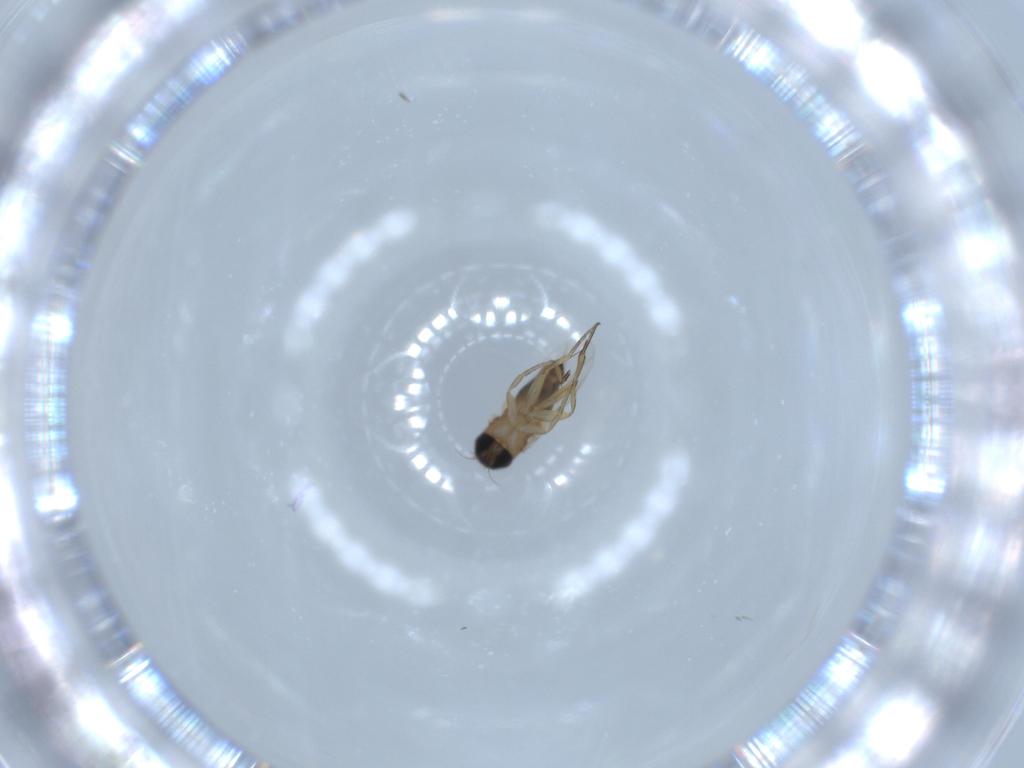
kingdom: Animalia
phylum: Arthropoda
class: Insecta
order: Diptera
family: Phoridae
